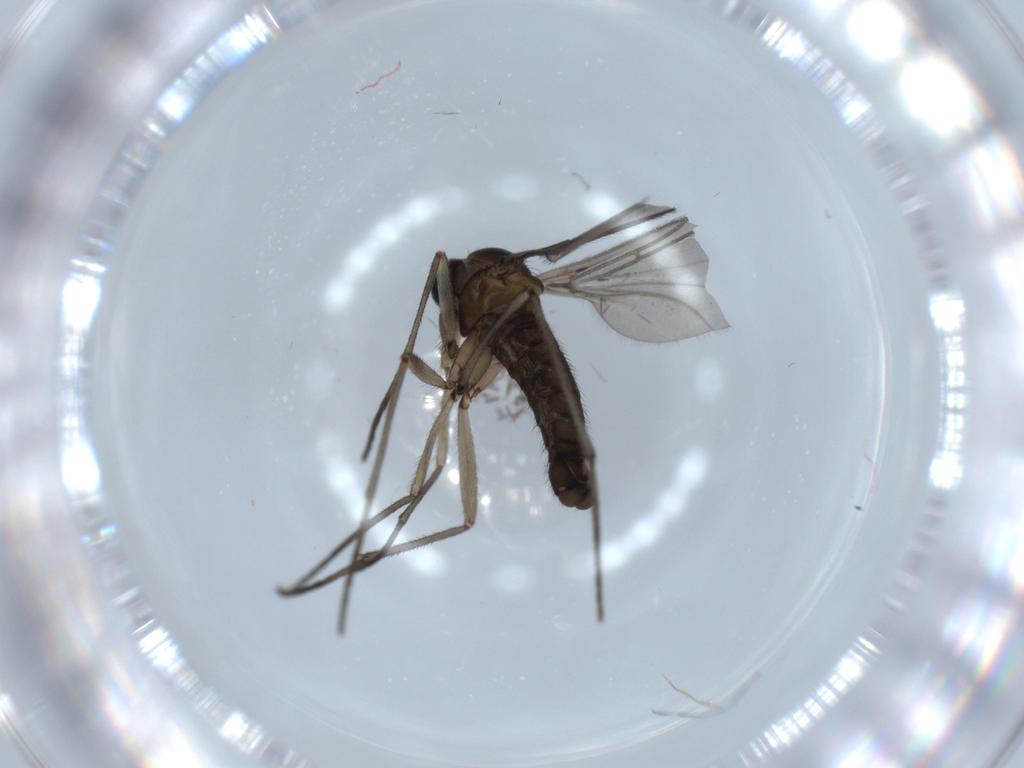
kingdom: Animalia
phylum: Arthropoda
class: Insecta
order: Diptera
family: Sciaridae
